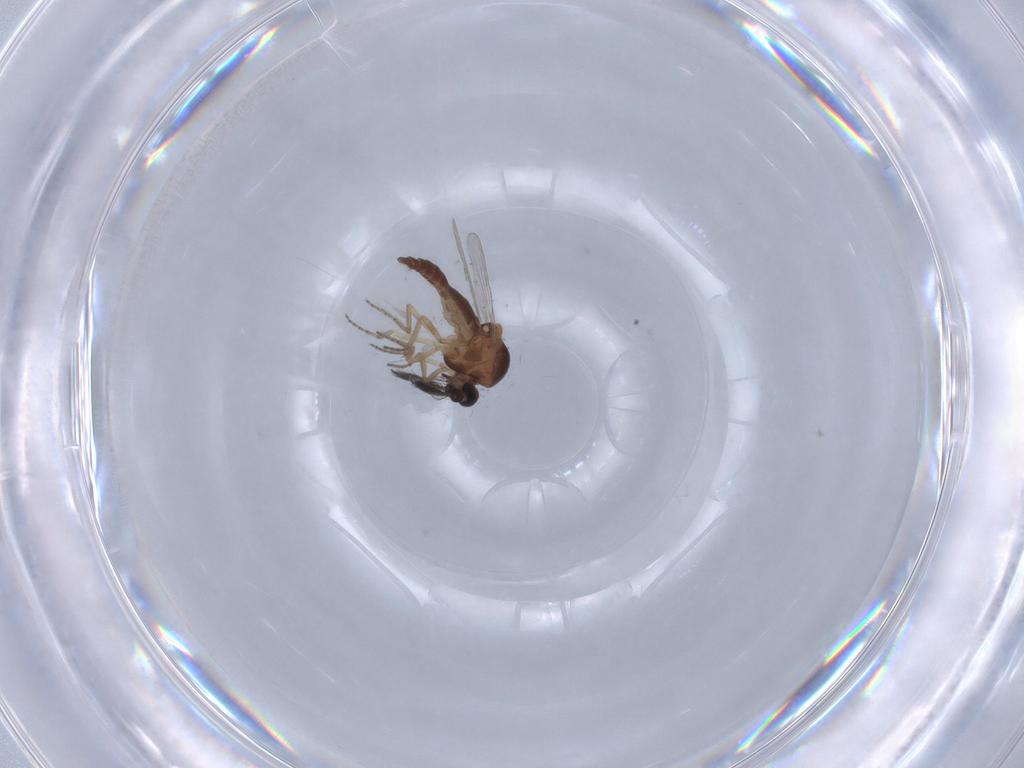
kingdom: Animalia
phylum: Arthropoda
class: Insecta
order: Diptera
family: Ceratopogonidae
